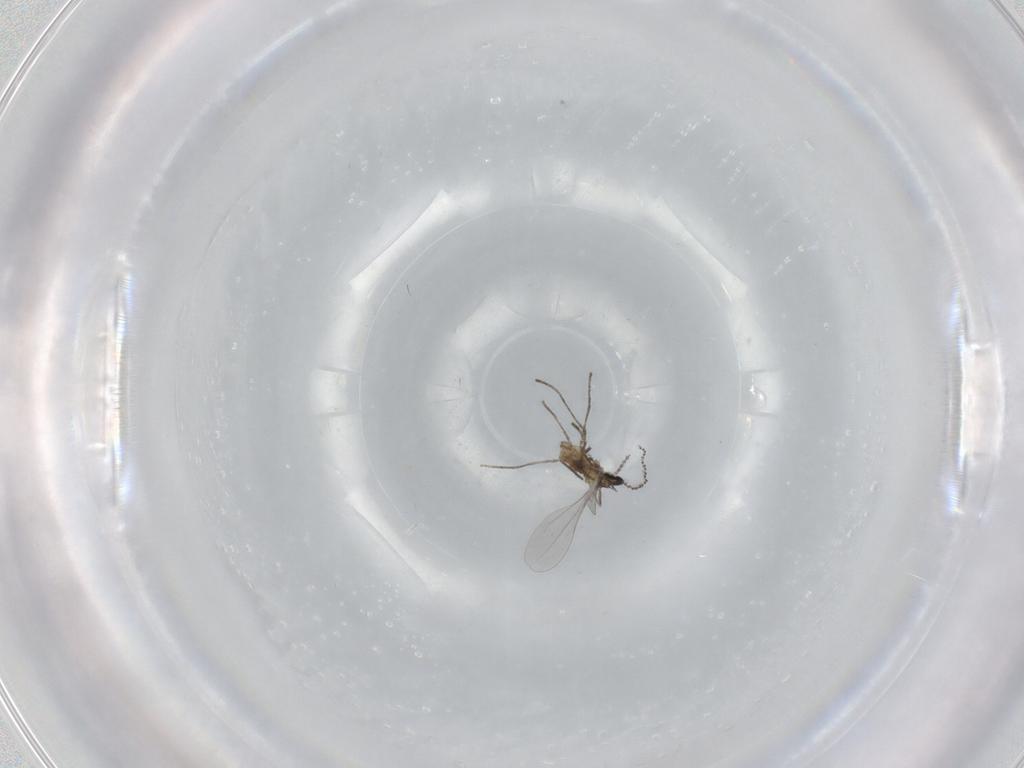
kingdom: Animalia
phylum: Arthropoda
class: Insecta
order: Diptera
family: Cecidomyiidae
